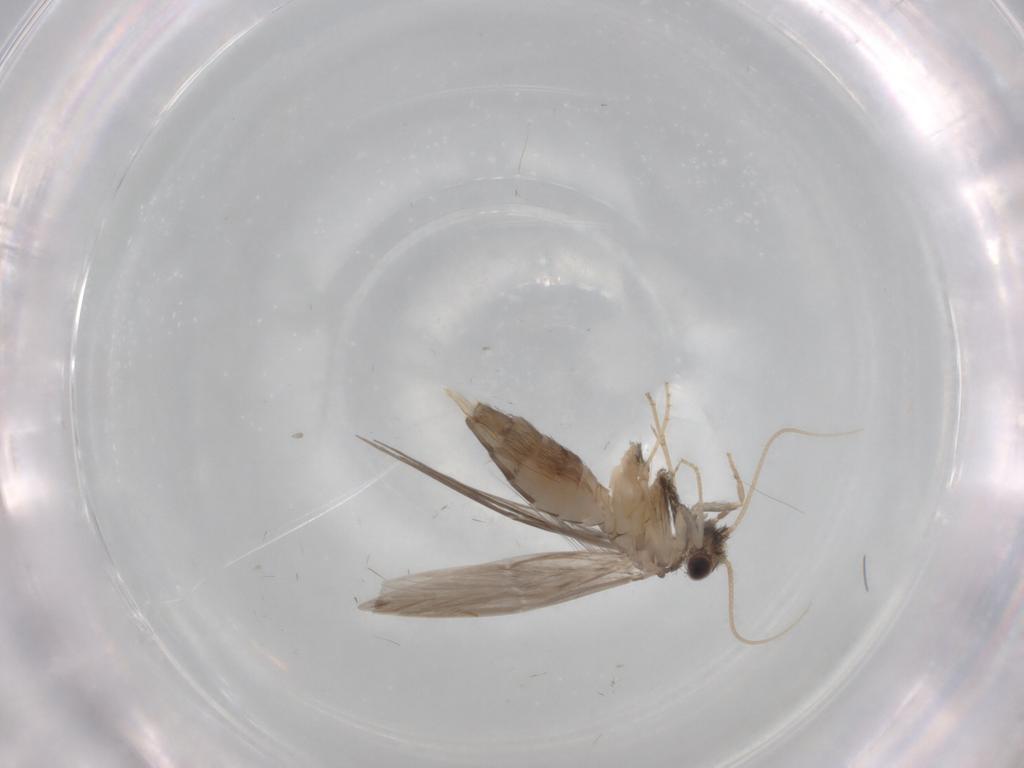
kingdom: Animalia
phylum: Arthropoda
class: Insecta
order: Trichoptera
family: Hydroptilidae
